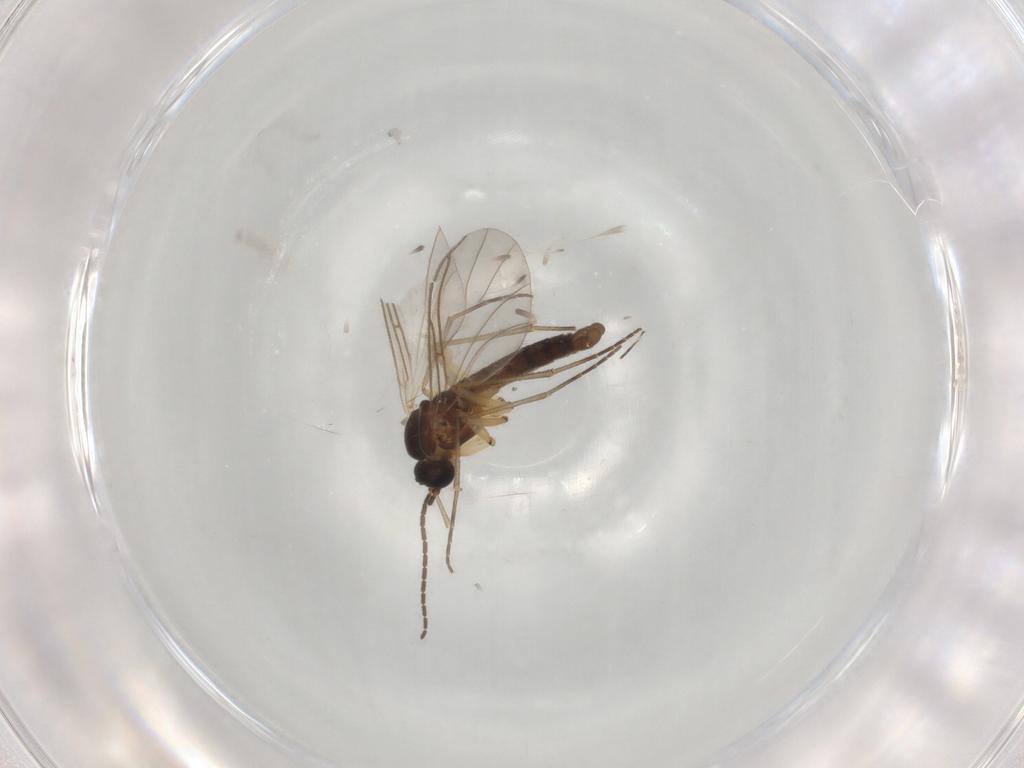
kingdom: Animalia
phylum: Arthropoda
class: Insecta
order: Diptera
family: Sciaridae
